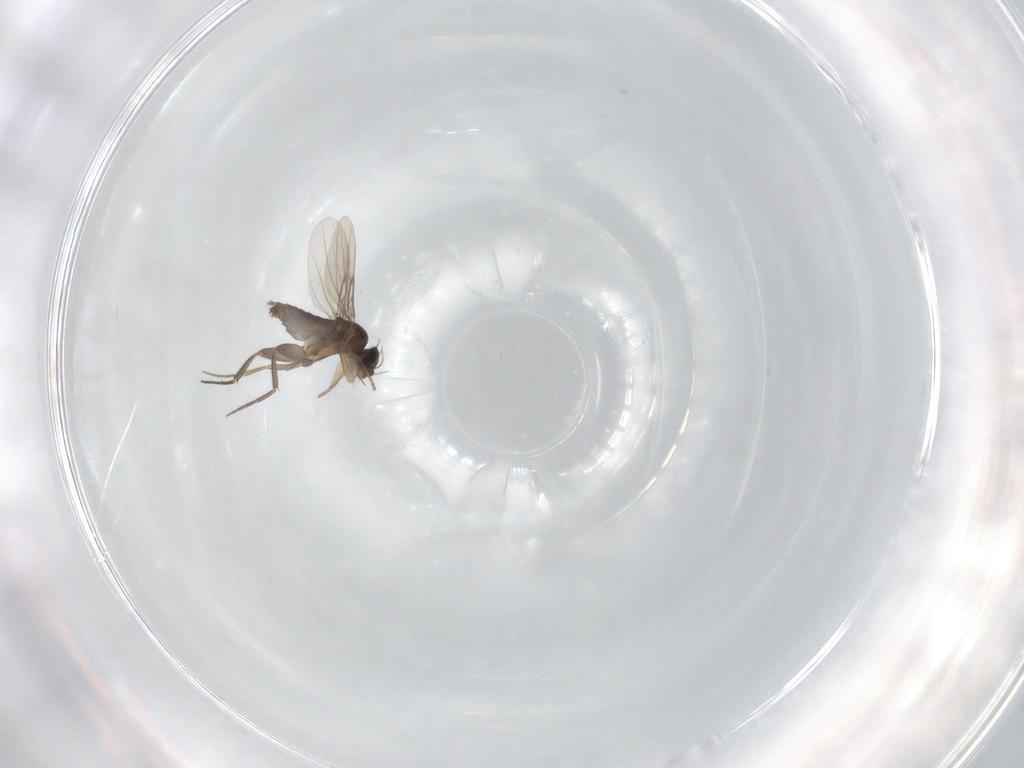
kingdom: Animalia
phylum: Arthropoda
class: Insecta
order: Diptera
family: Phoridae
